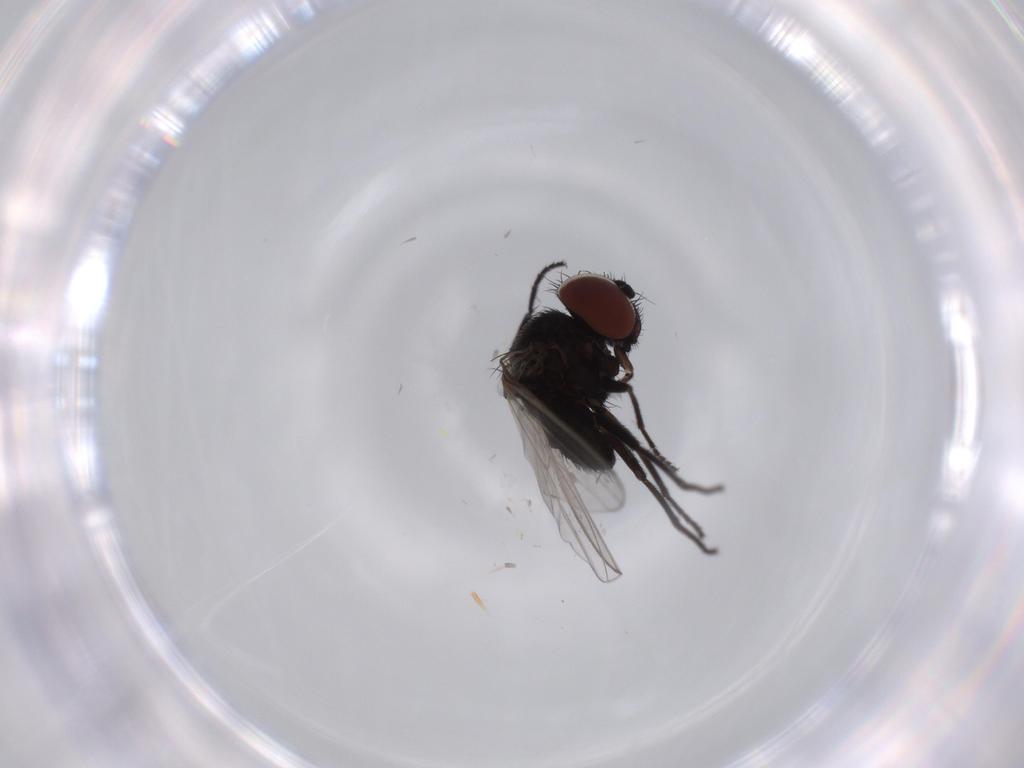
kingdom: Animalia
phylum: Arthropoda
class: Insecta
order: Diptera
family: Milichiidae
